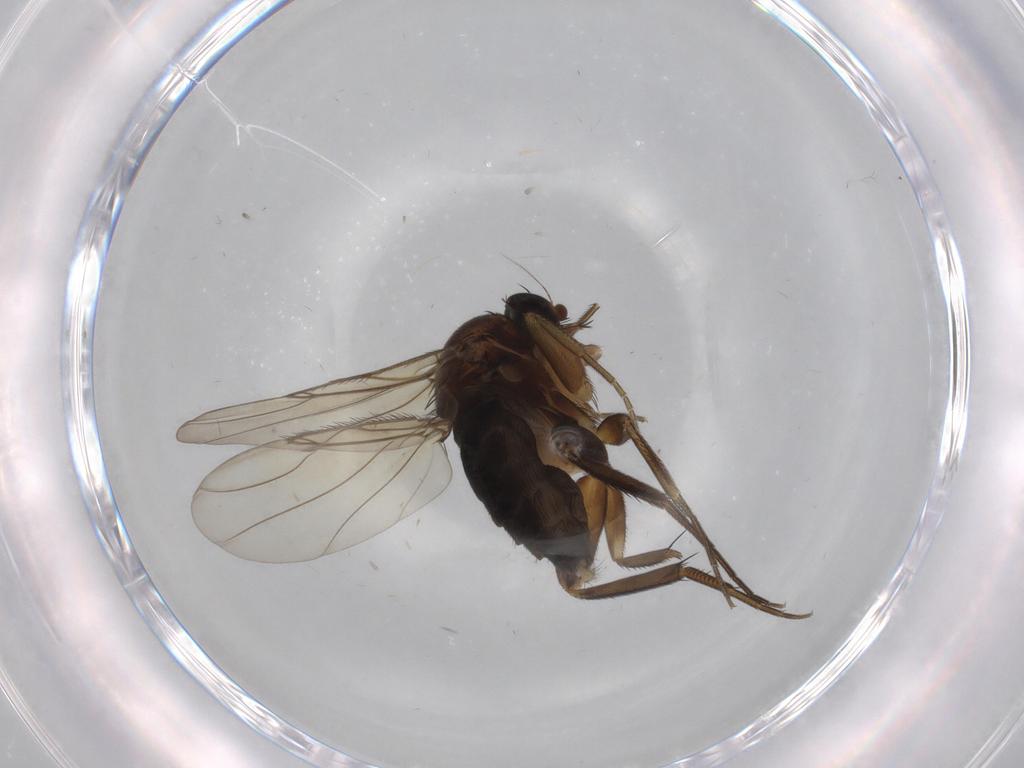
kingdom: Animalia
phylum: Arthropoda
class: Insecta
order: Diptera
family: Phoridae
